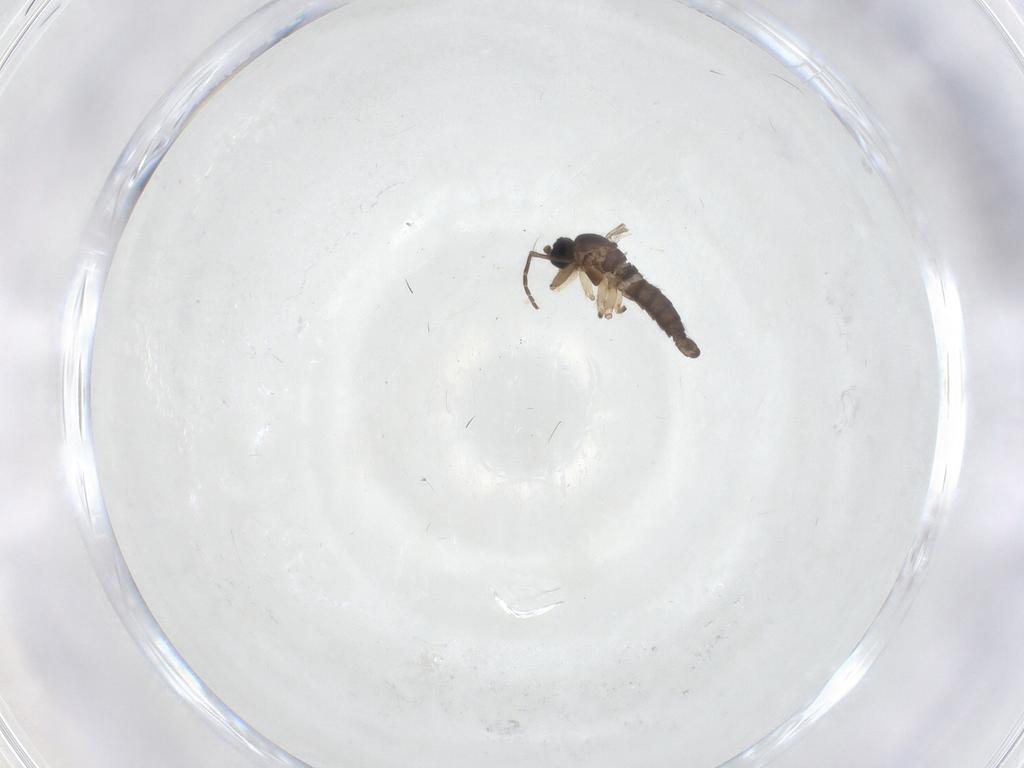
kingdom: Animalia
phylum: Arthropoda
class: Insecta
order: Diptera
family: Sciaridae
